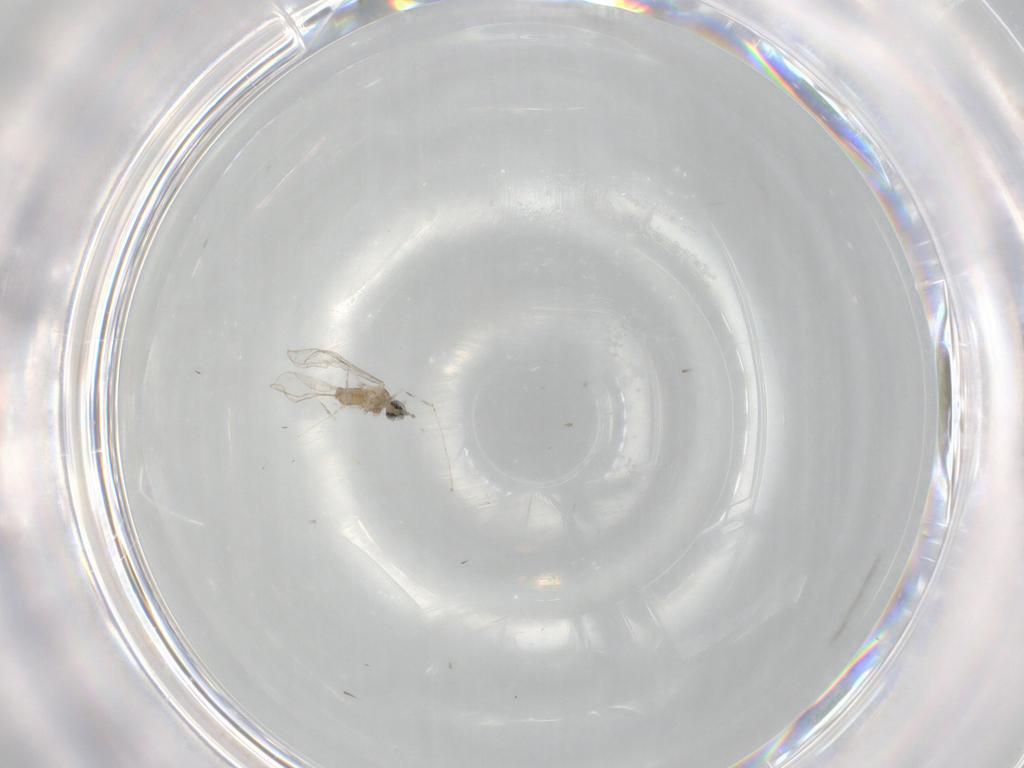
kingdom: Animalia
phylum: Arthropoda
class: Insecta
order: Diptera
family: Cecidomyiidae
